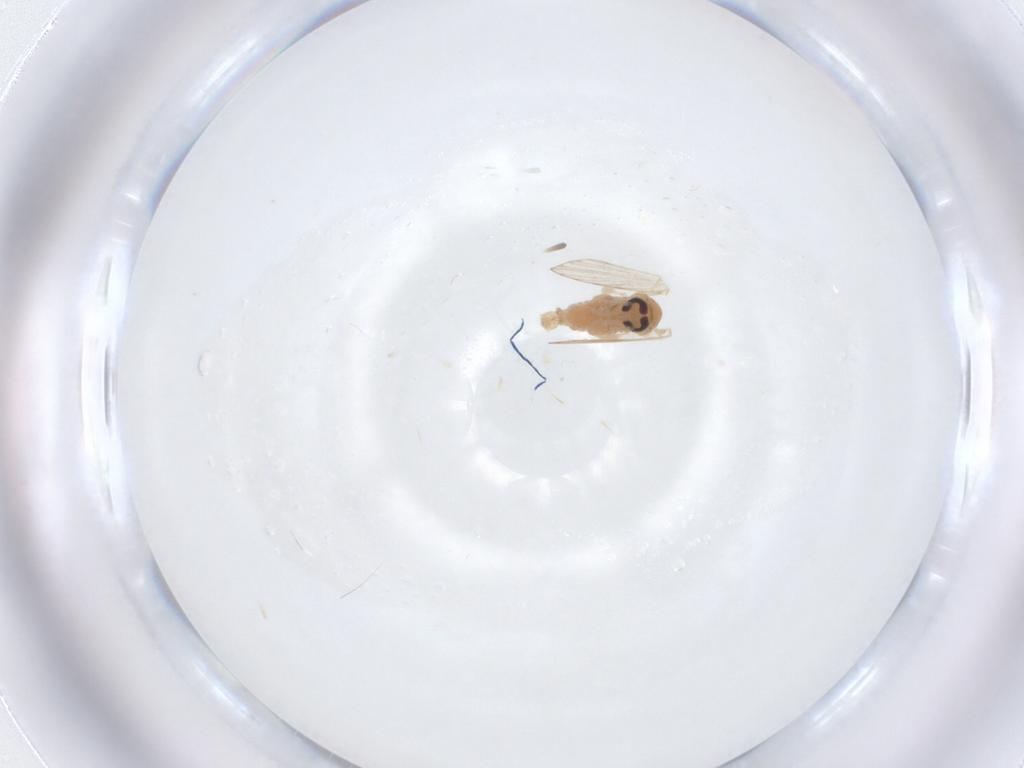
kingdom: Animalia
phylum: Arthropoda
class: Insecta
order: Diptera
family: Psychodidae
